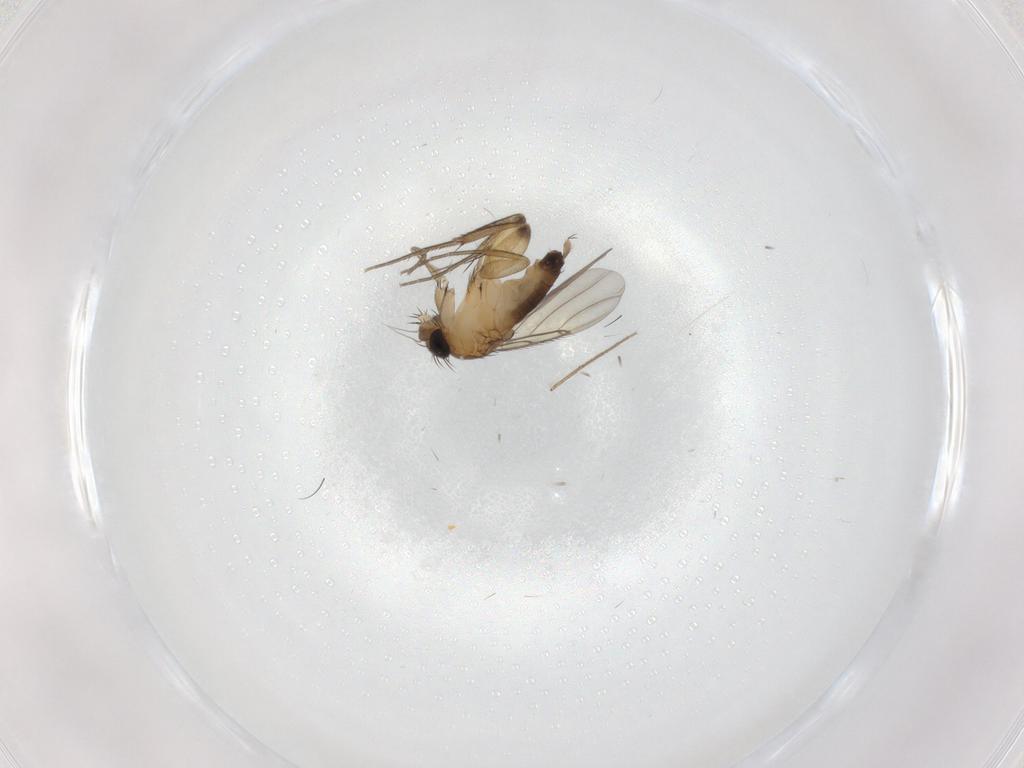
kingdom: Animalia
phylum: Arthropoda
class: Insecta
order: Diptera
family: Phoridae
